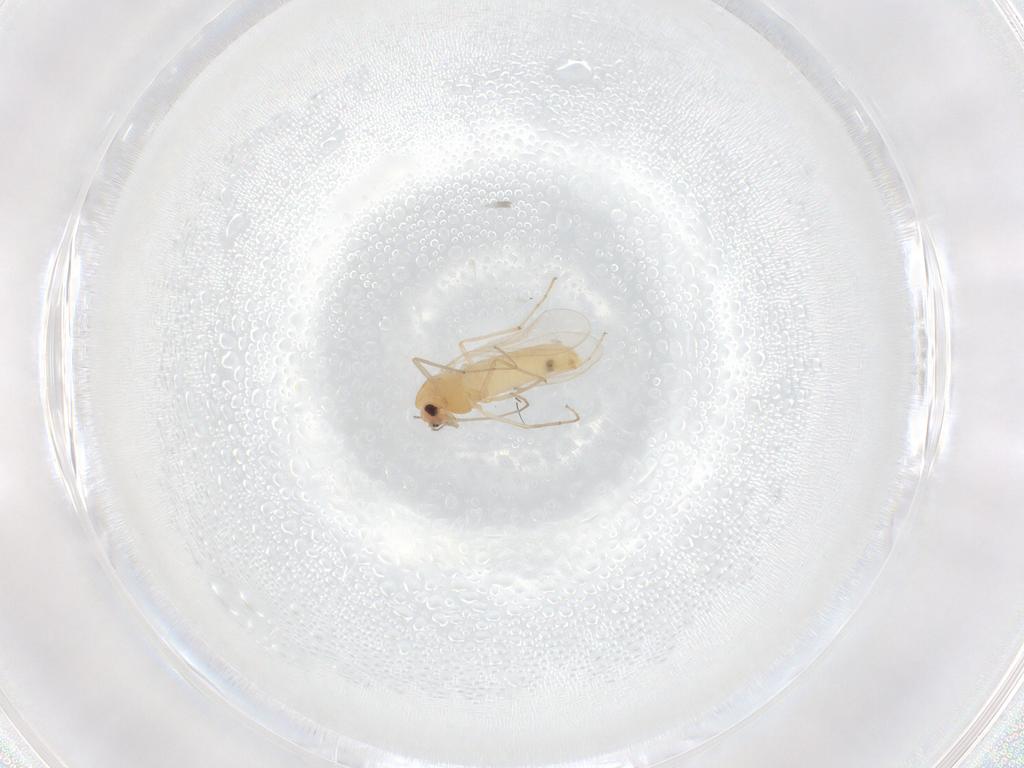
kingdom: Animalia
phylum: Arthropoda
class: Insecta
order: Diptera
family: Chironomidae
